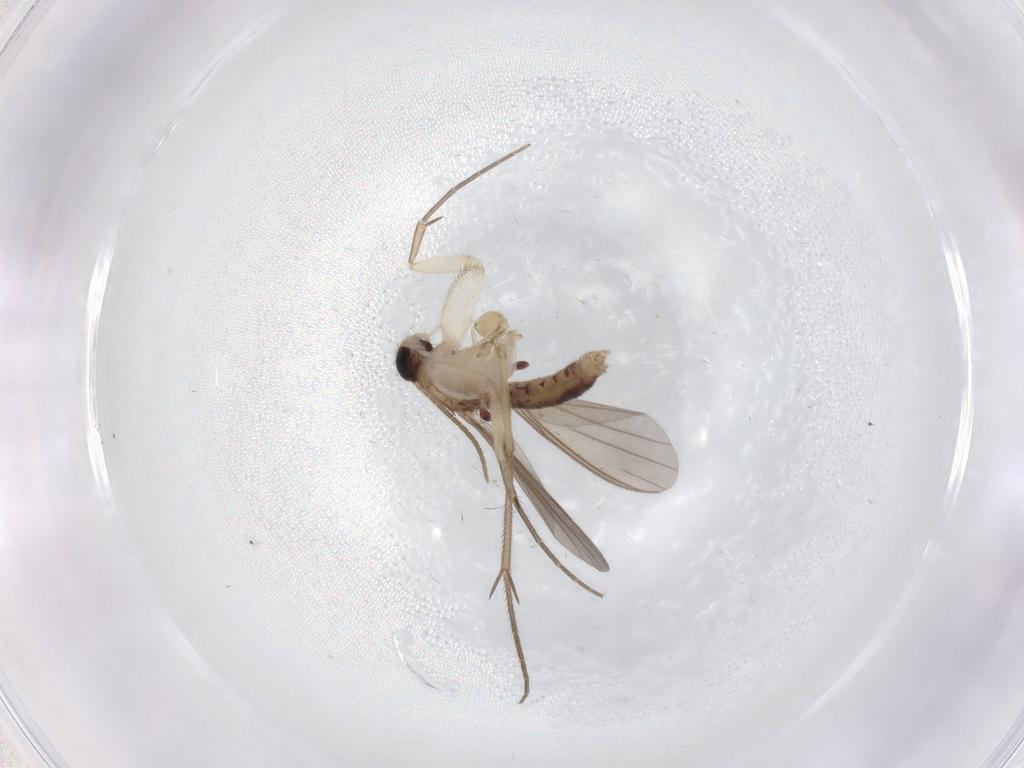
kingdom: Animalia
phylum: Arthropoda
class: Insecta
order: Diptera
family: Mycetophilidae
